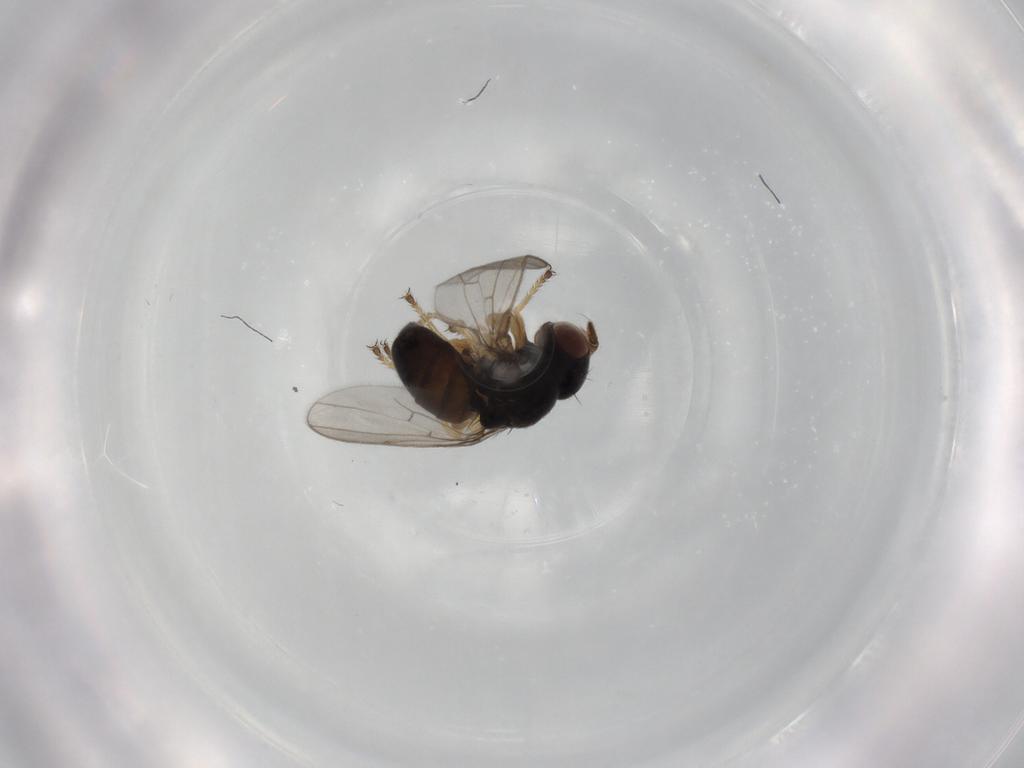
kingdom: Animalia
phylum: Arthropoda
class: Insecta
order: Diptera
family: Ephydridae
